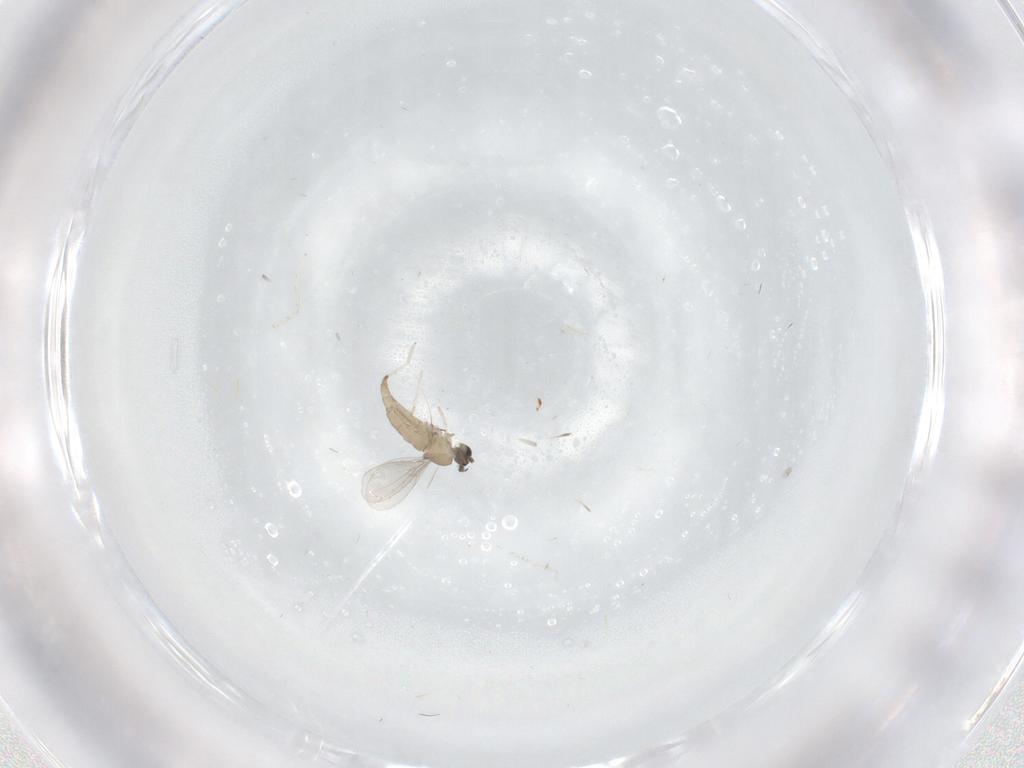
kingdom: Animalia
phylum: Arthropoda
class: Insecta
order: Diptera
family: Cecidomyiidae
